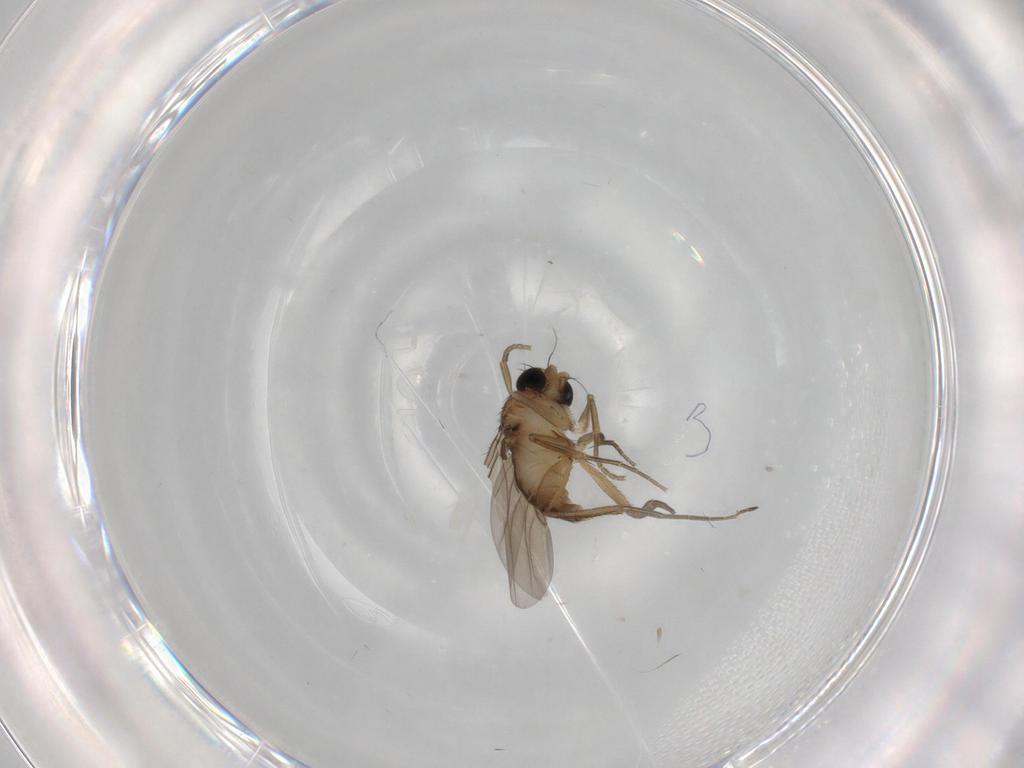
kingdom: Animalia
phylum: Arthropoda
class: Insecta
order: Diptera
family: Phoridae
